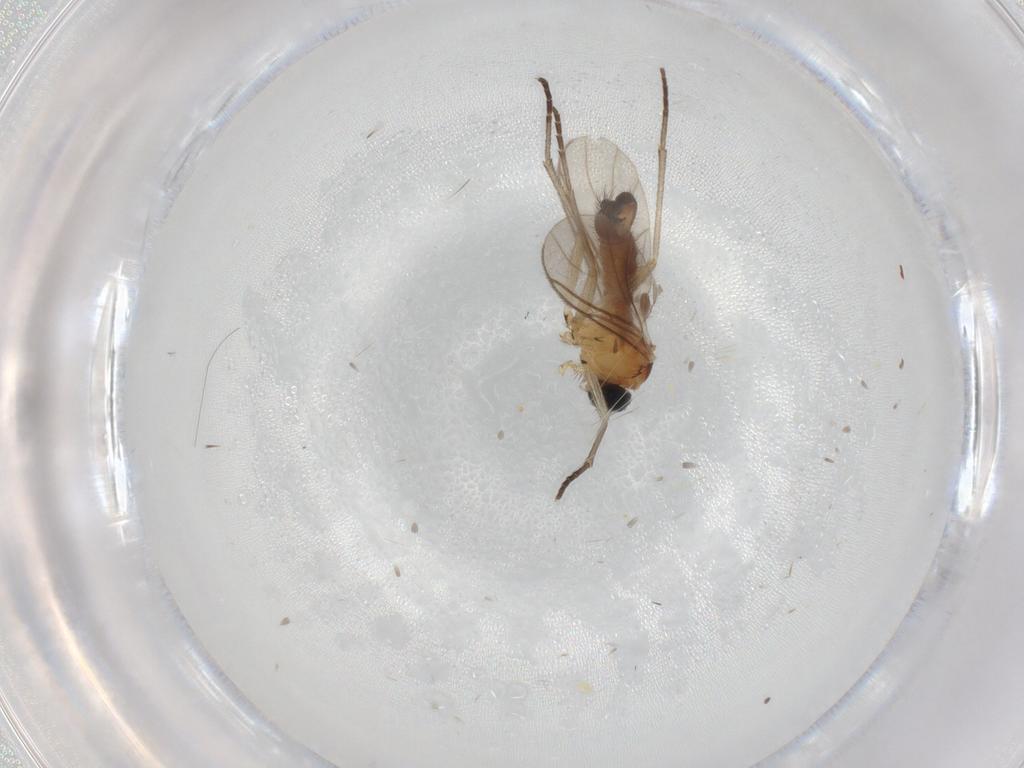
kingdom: Animalia
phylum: Arthropoda
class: Insecta
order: Diptera
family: Sciaridae
